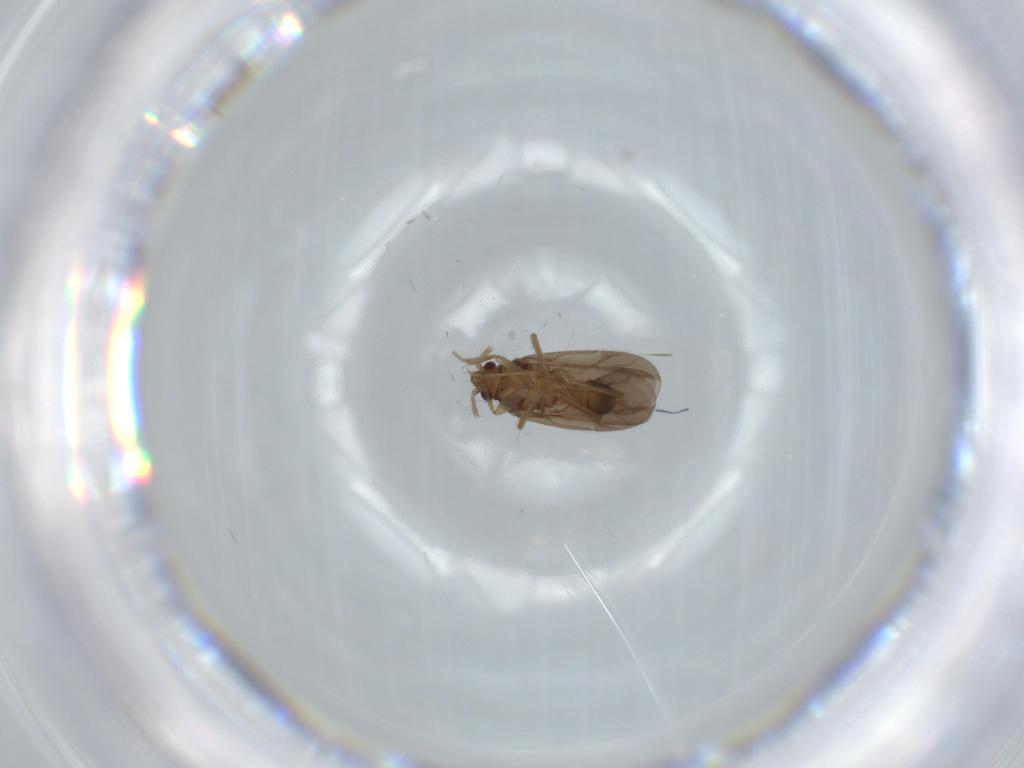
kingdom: Animalia
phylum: Arthropoda
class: Insecta
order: Hemiptera
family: Ceratocombidae
